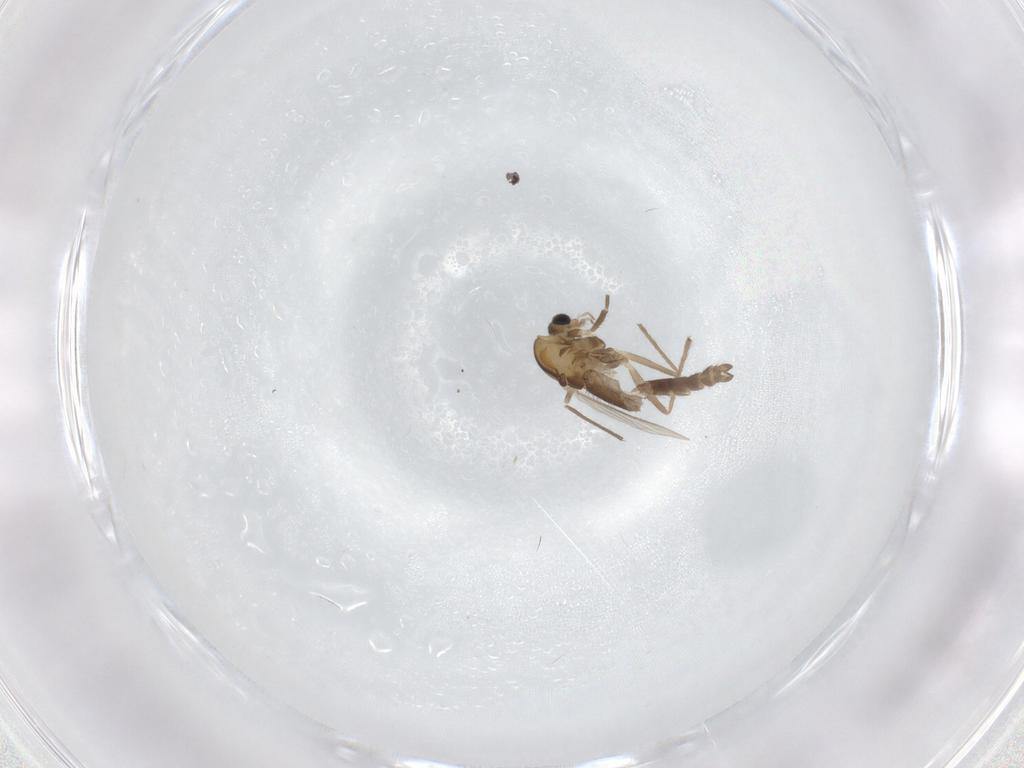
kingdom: Animalia
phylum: Arthropoda
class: Insecta
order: Diptera
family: Chironomidae
